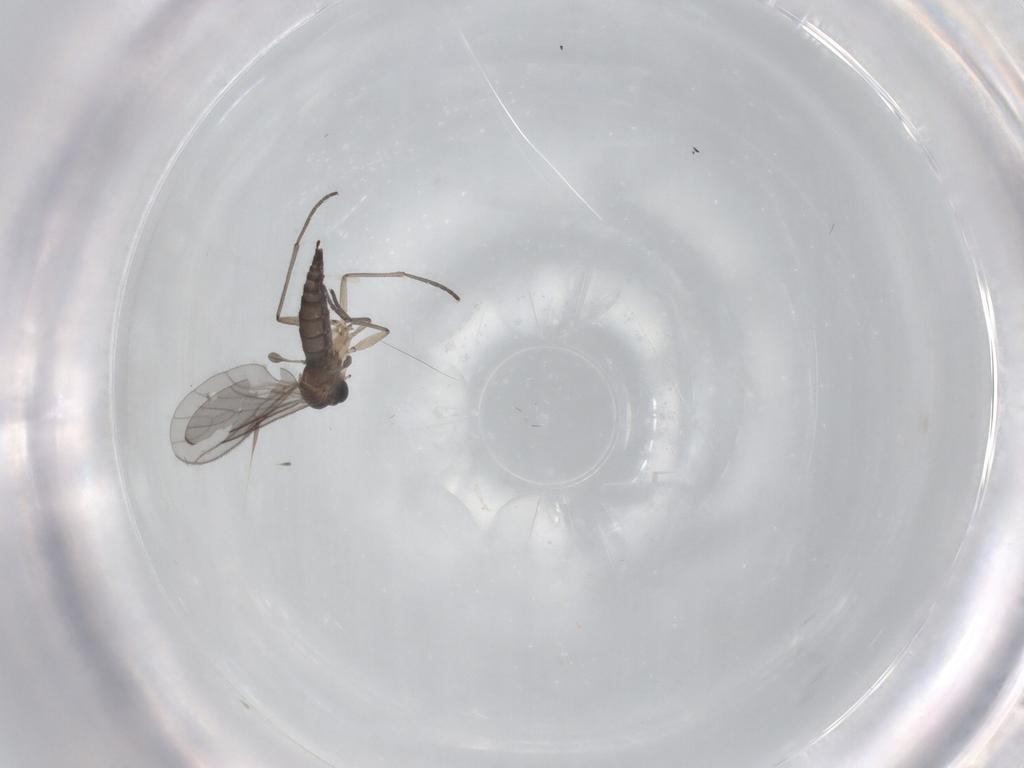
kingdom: Animalia
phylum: Arthropoda
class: Insecta
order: Diptera
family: Sciaridae
